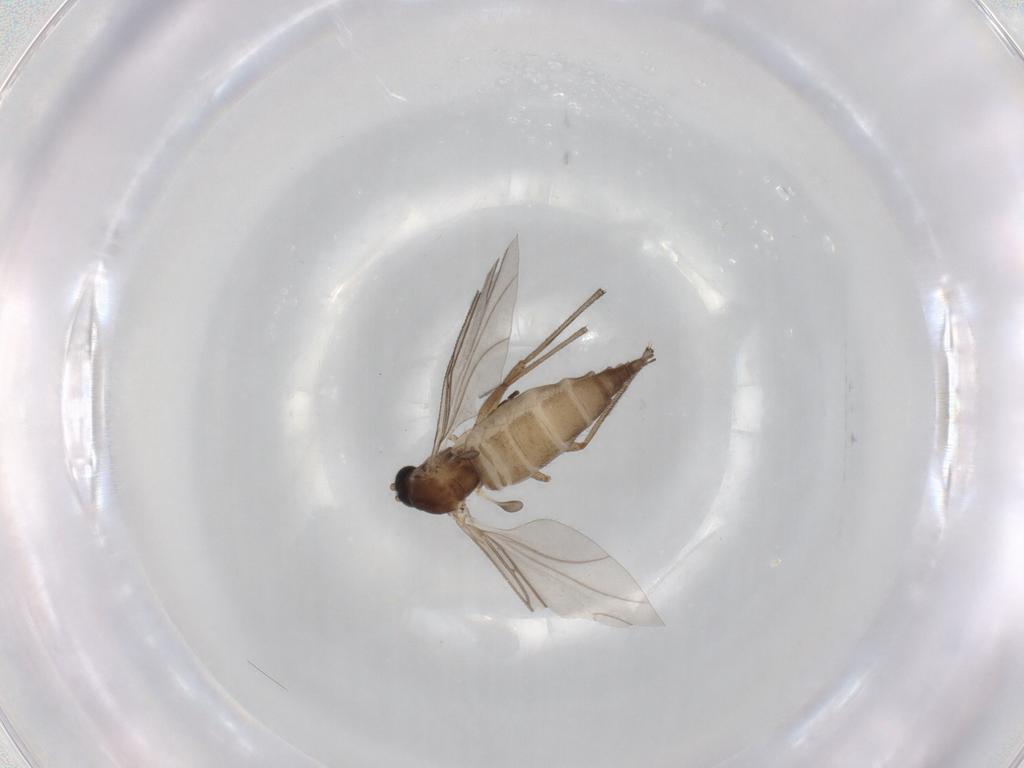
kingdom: Animalia
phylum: Arthropoda
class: Insecta
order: Diptera
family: Sciaridae
